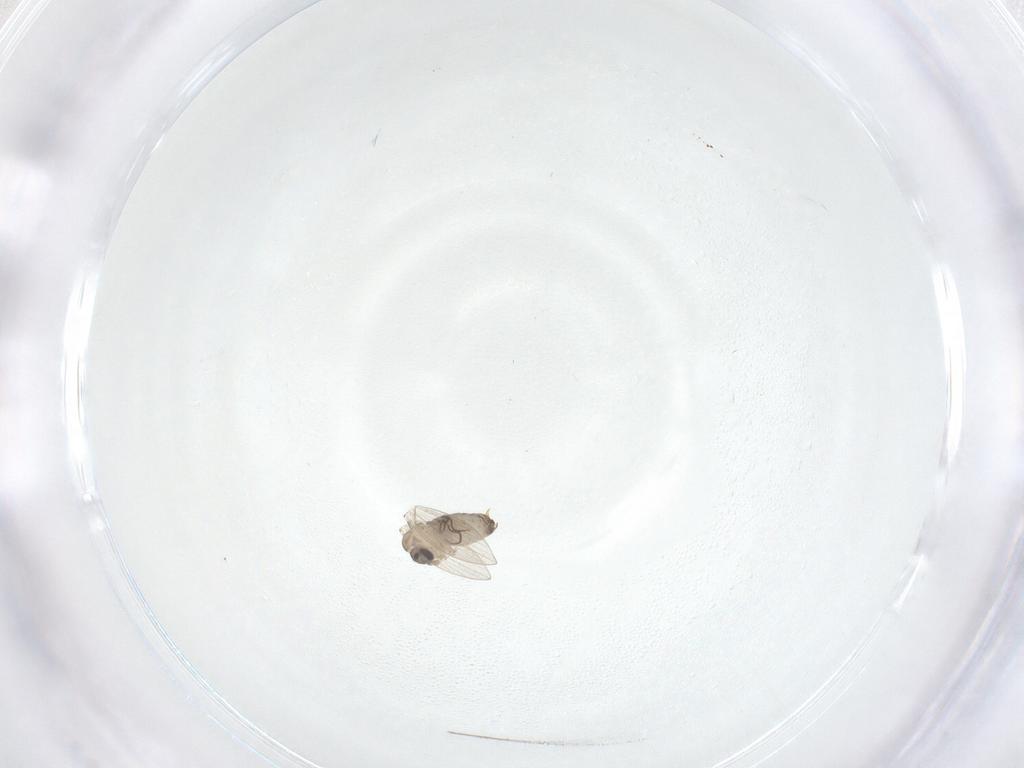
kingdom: Animalia
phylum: Arthropoda
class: Insecta
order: Diptera
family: Psychodidae
